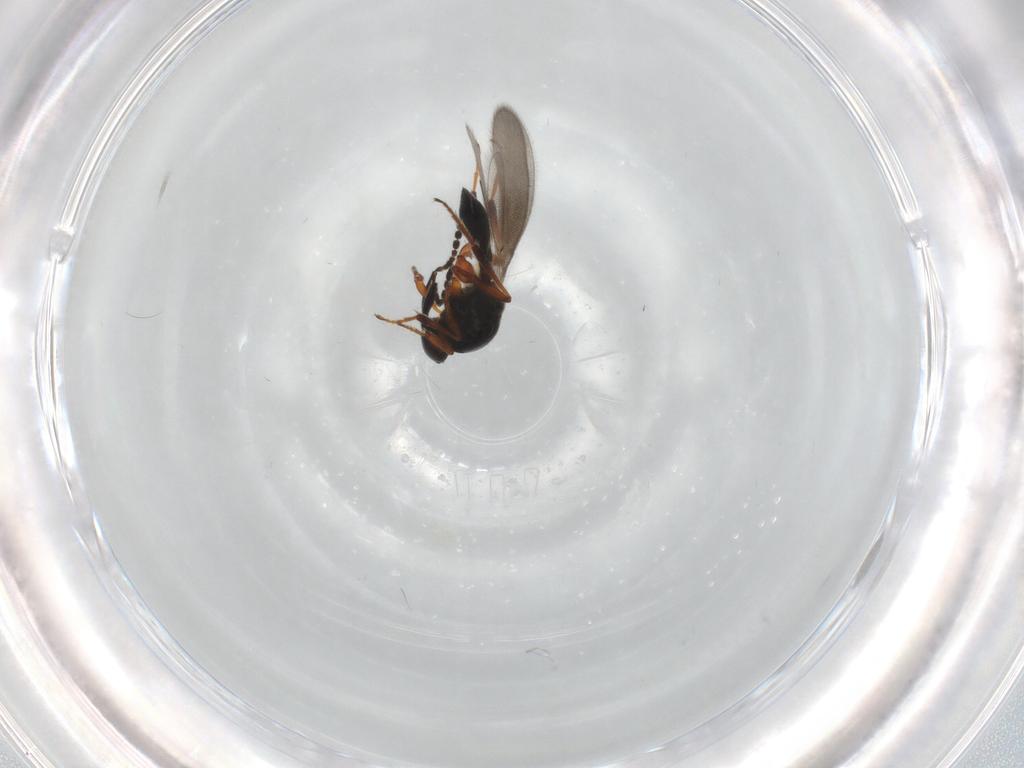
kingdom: Animalia
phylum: Arthropoda
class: Insecta
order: Hymenoptera
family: Platygastridae
